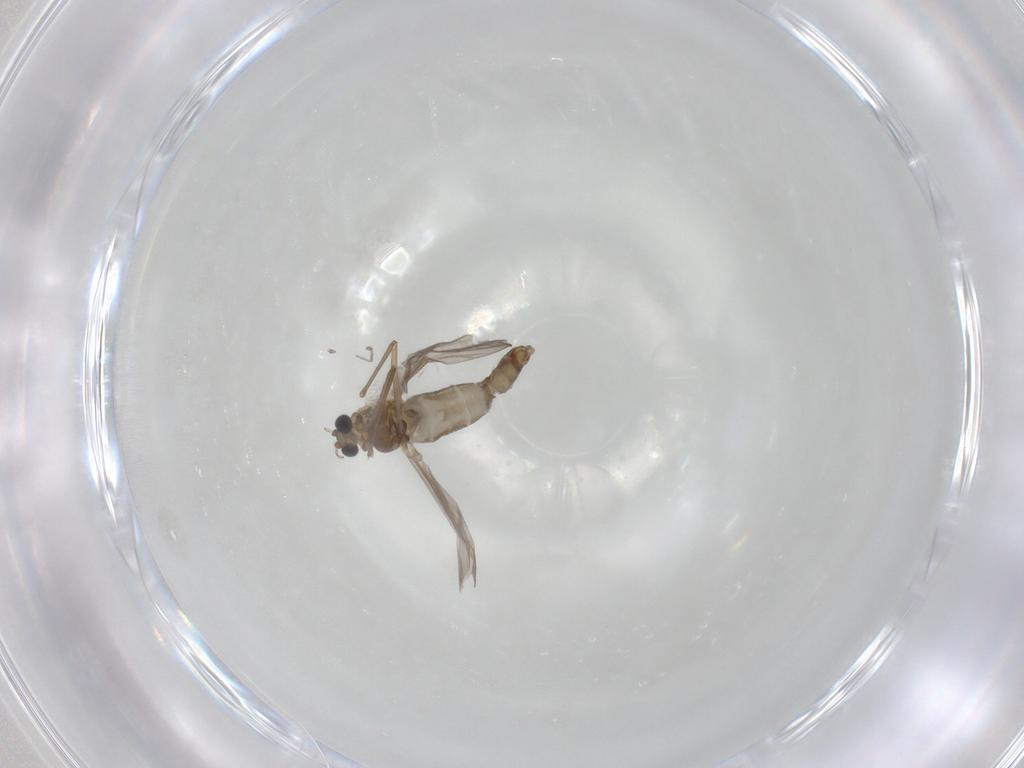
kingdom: Animalia
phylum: Arthropoda
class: Insecta
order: Diptera
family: Chironomidae
